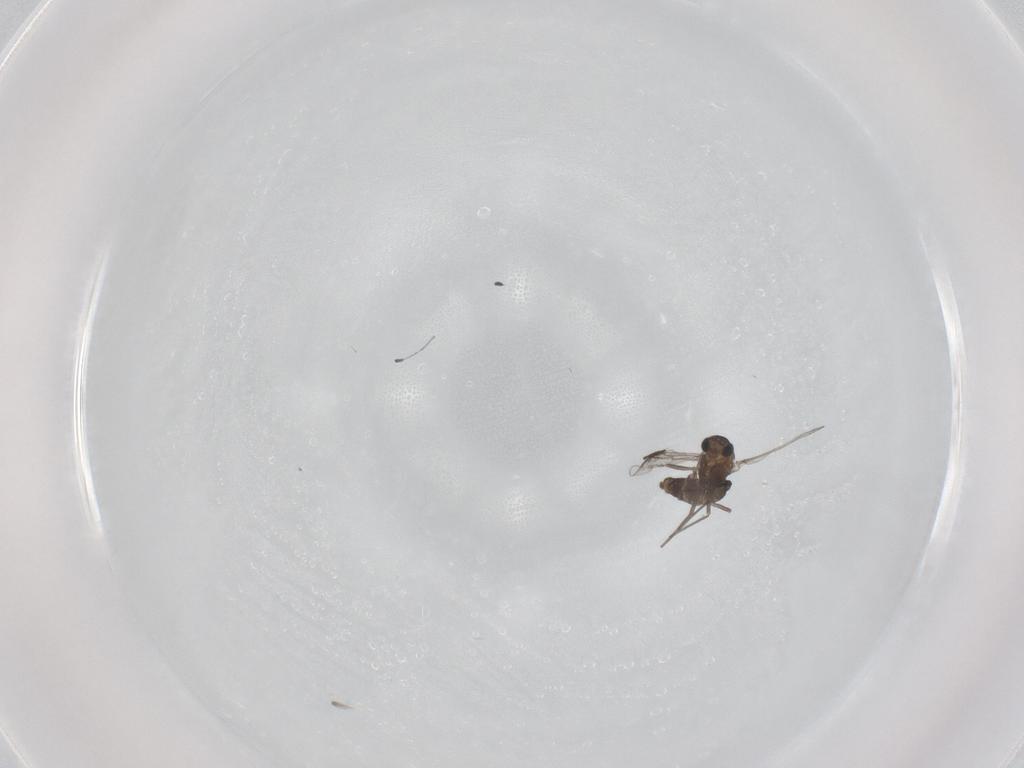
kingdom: Animalia
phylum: Arthropoda
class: Insecta
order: Diptera
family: Chironomidae
